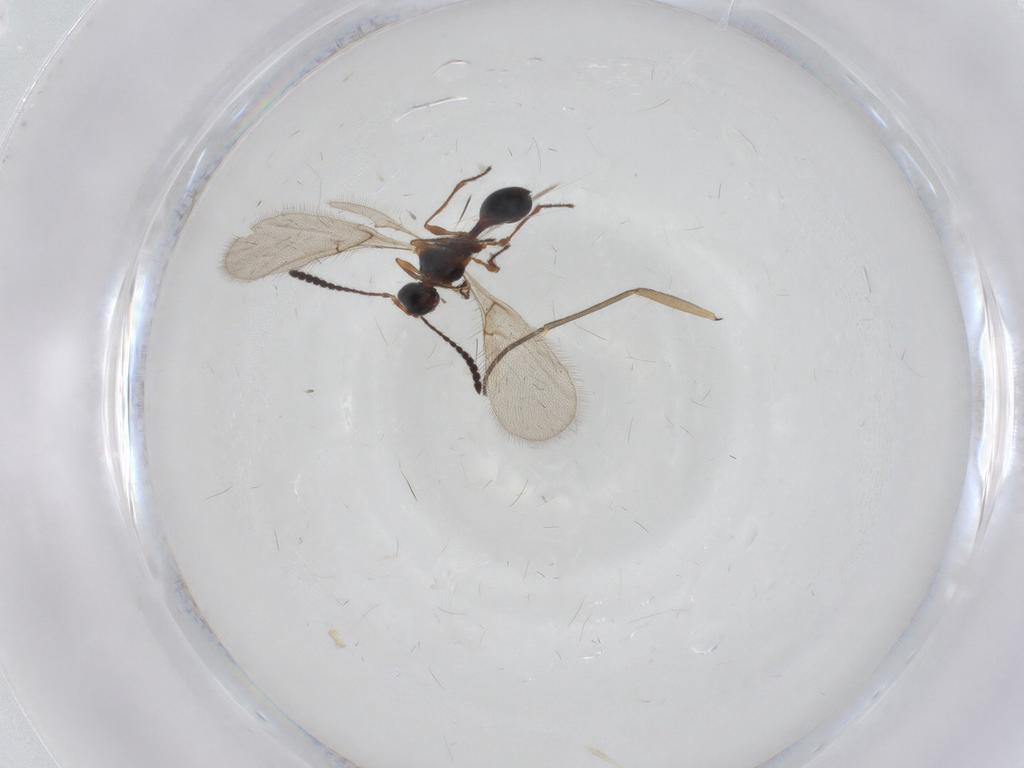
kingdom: Animalia
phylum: Arthropoda
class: Insecta
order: Hymenoptera
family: Diapriidae
